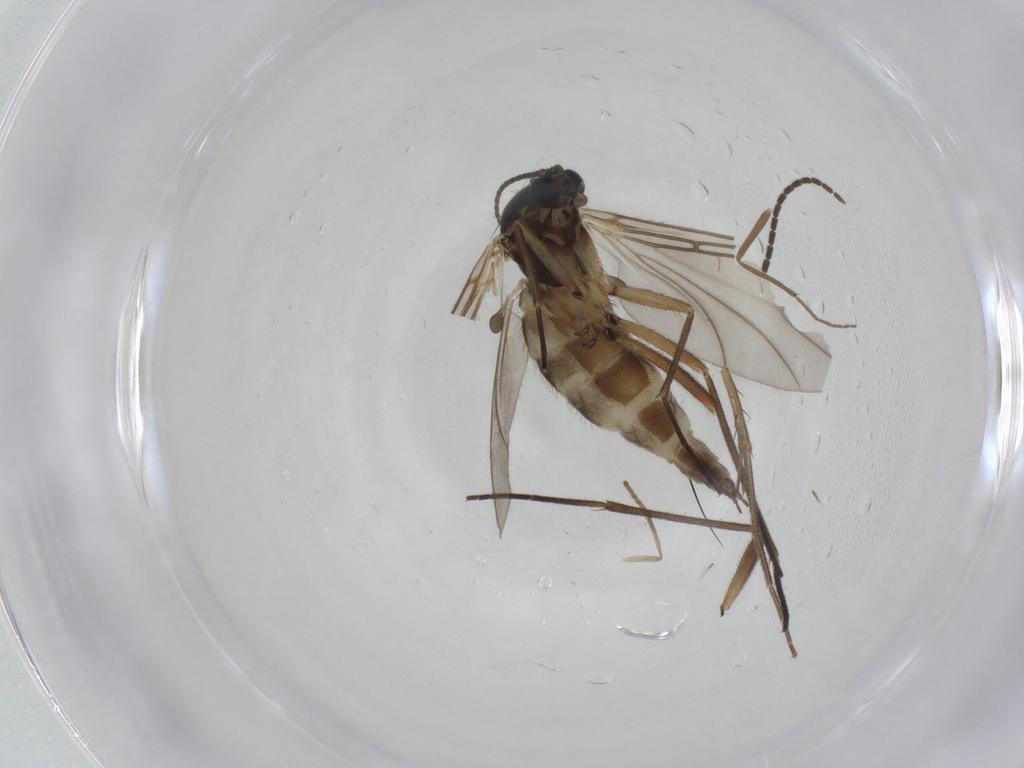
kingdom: Animalia
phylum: Arthropoda
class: Insecta
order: Diptera
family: Sciaridae
